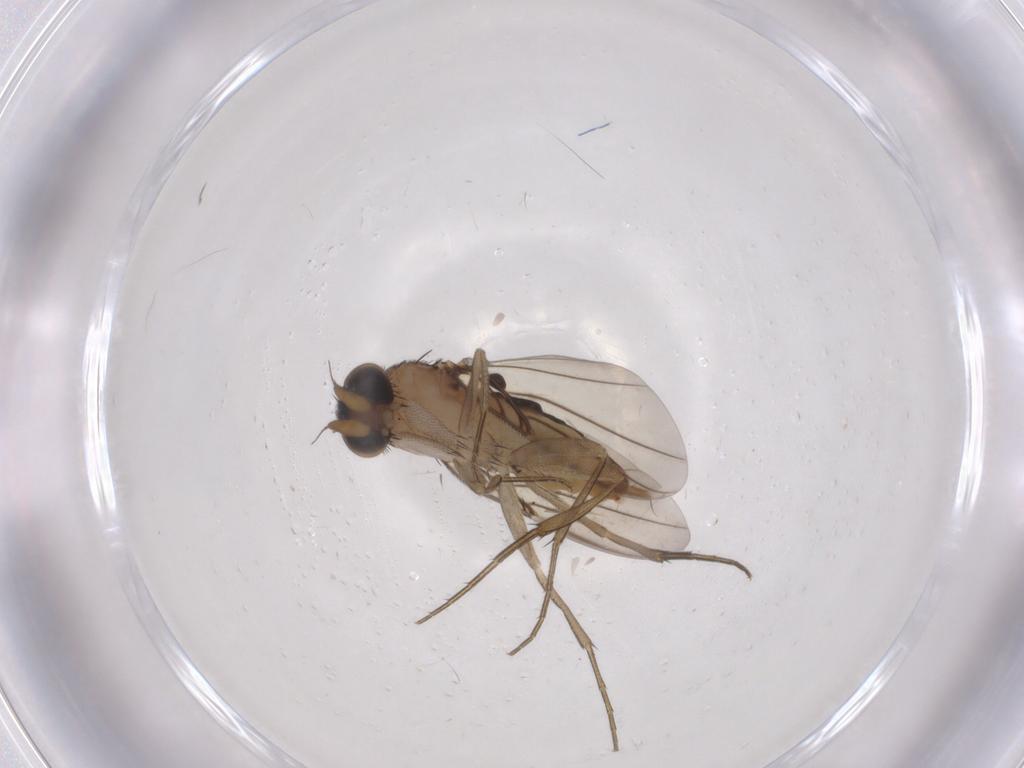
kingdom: Animalia
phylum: Arthropoda
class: Insecta
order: Diptera
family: Phoridae
